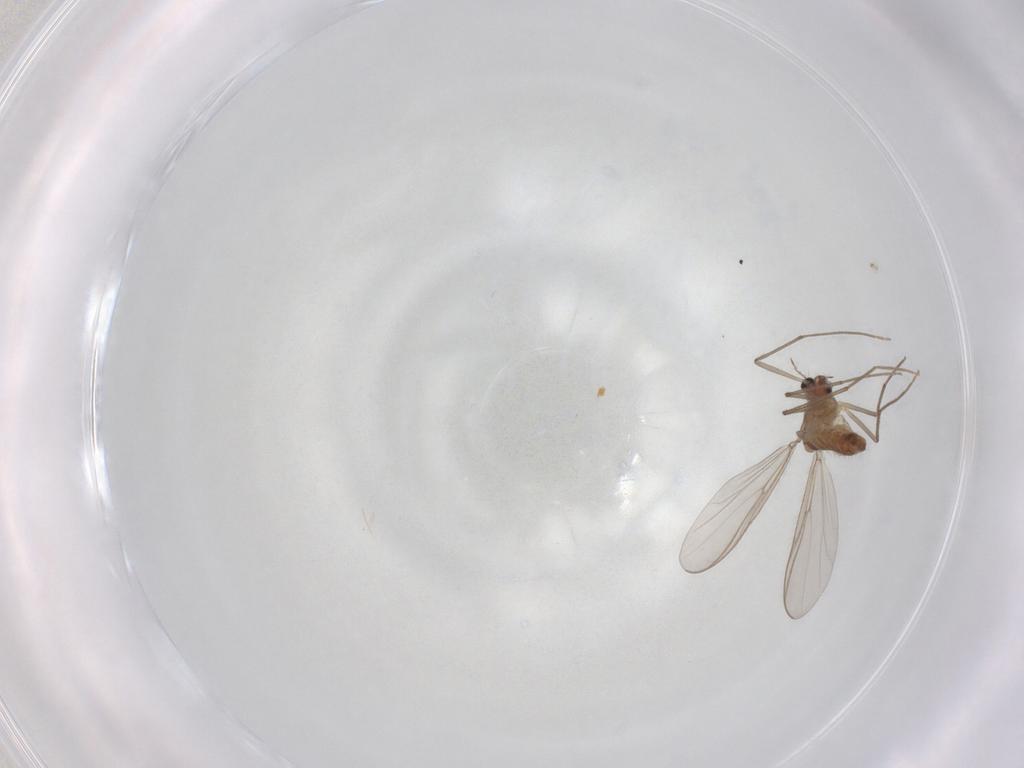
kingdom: Animalia
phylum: Arthropoda
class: Insecta
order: Diptera
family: Chironomidae
